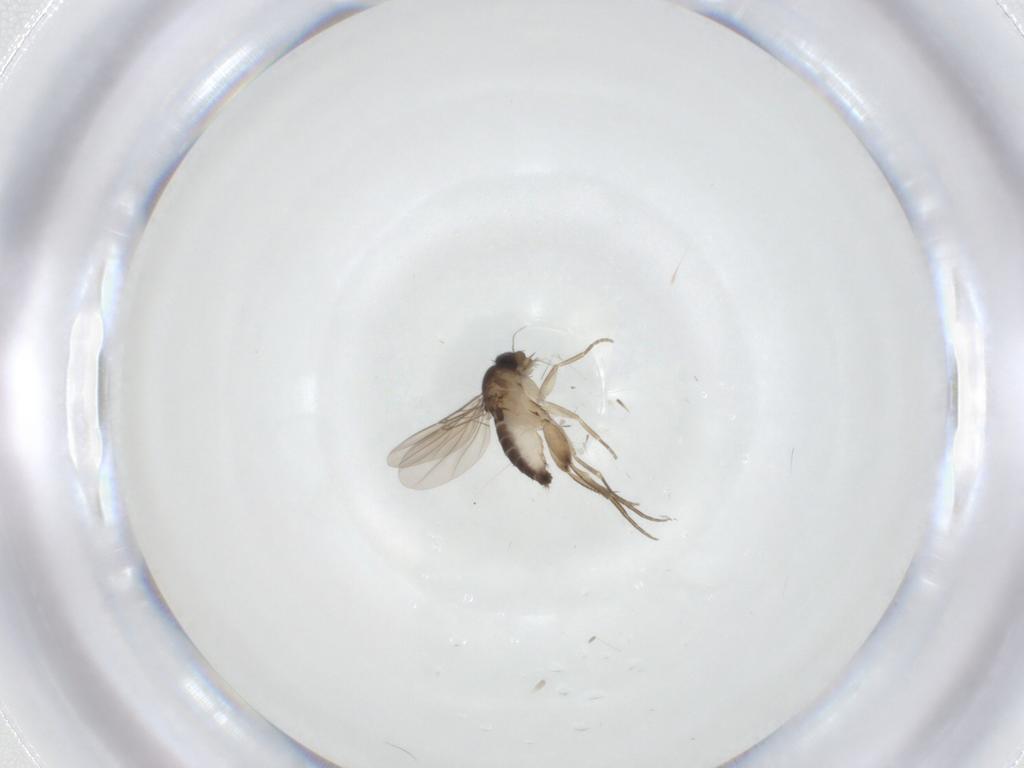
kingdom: Animalia
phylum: Arthropoda
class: Insecta
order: Diptera
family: Phoridae
